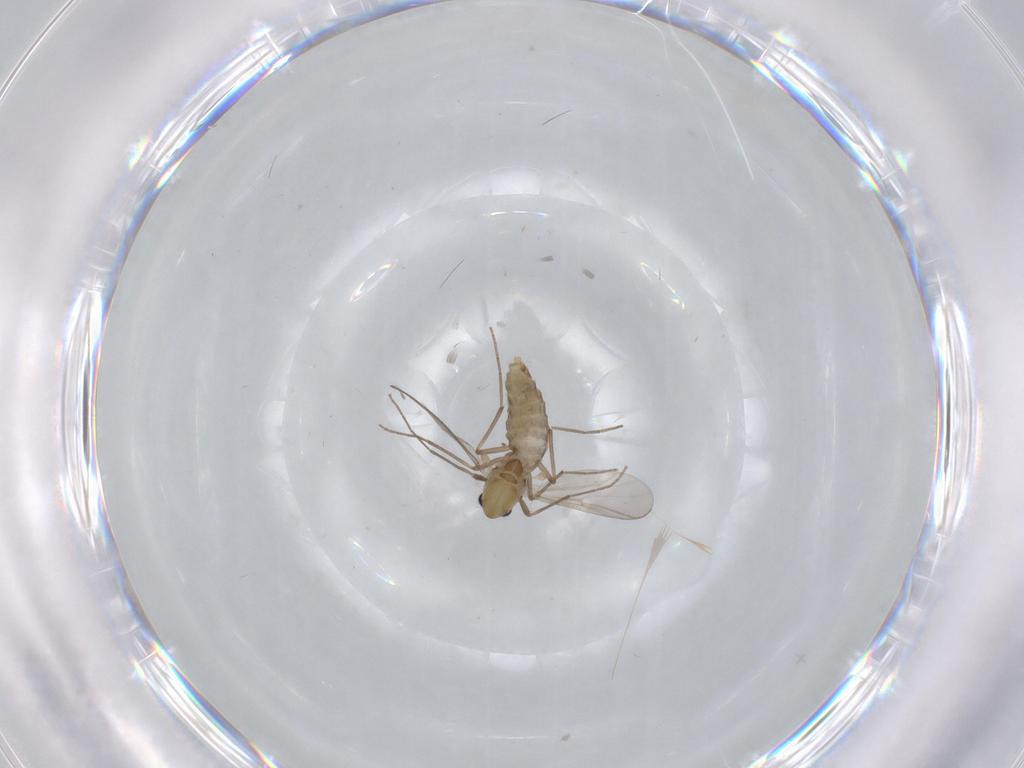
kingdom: Animalia
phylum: Arthropoda
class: Insecta
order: Diptera
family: Chironomidae
